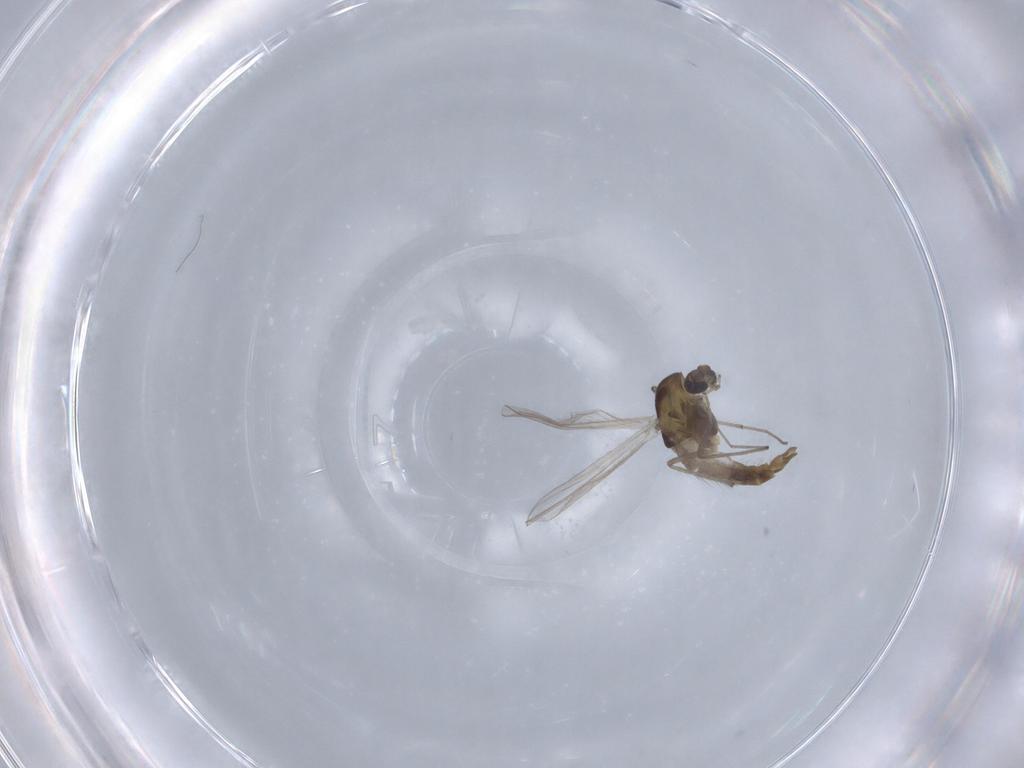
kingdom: Animalia
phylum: Arthropoda
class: Insecta
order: Diptera
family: Chironomidae
